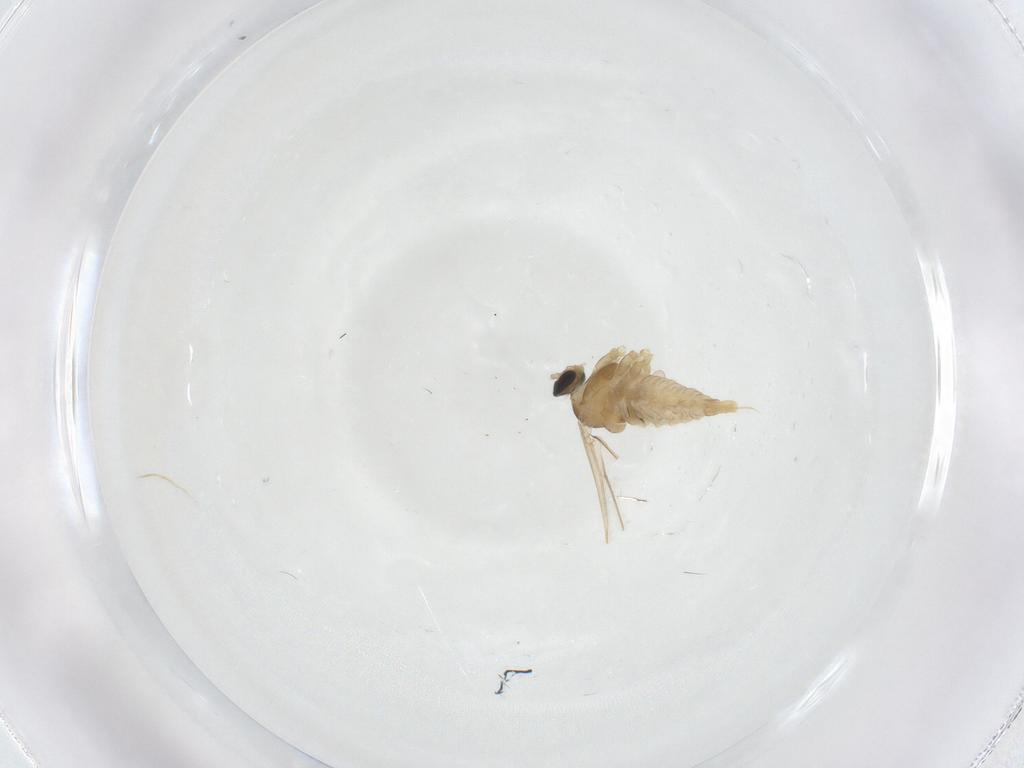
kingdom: Animalia
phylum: Arthropoda
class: Insecta
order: Diptera
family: Cecidomyiidae
